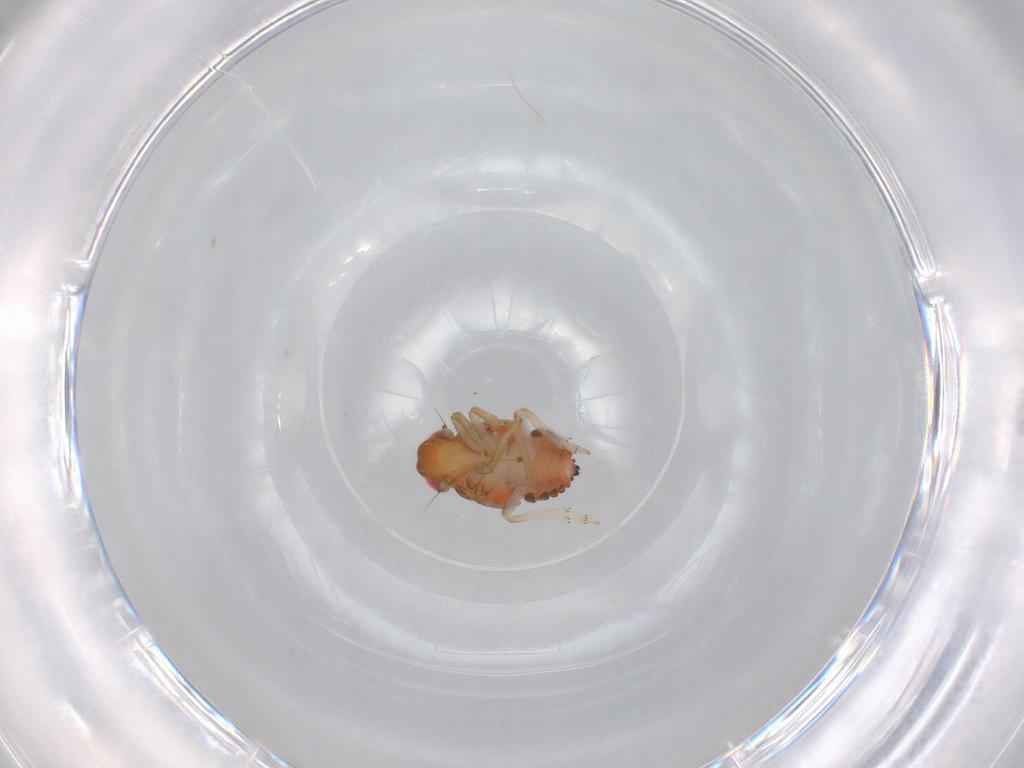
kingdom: Animalia
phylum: Arthropoda
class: Insecta
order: Hemiptera
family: Issidae
